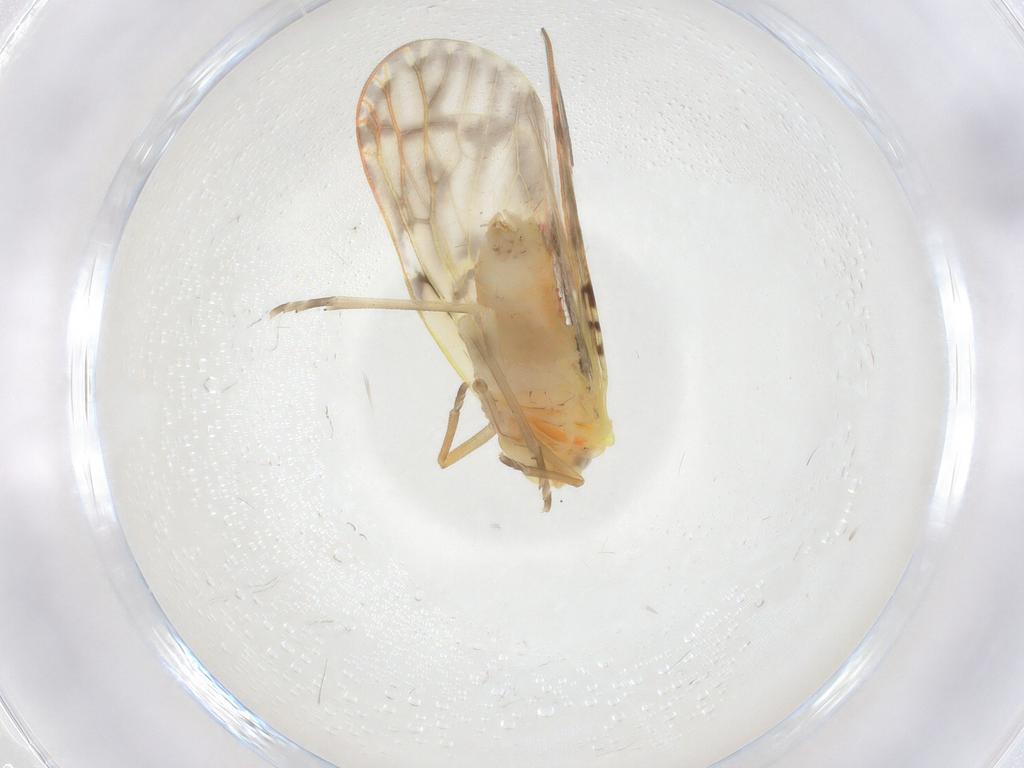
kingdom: Animalia
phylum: Arthropoda
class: Insecta
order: Hemiptera
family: Derbidae
